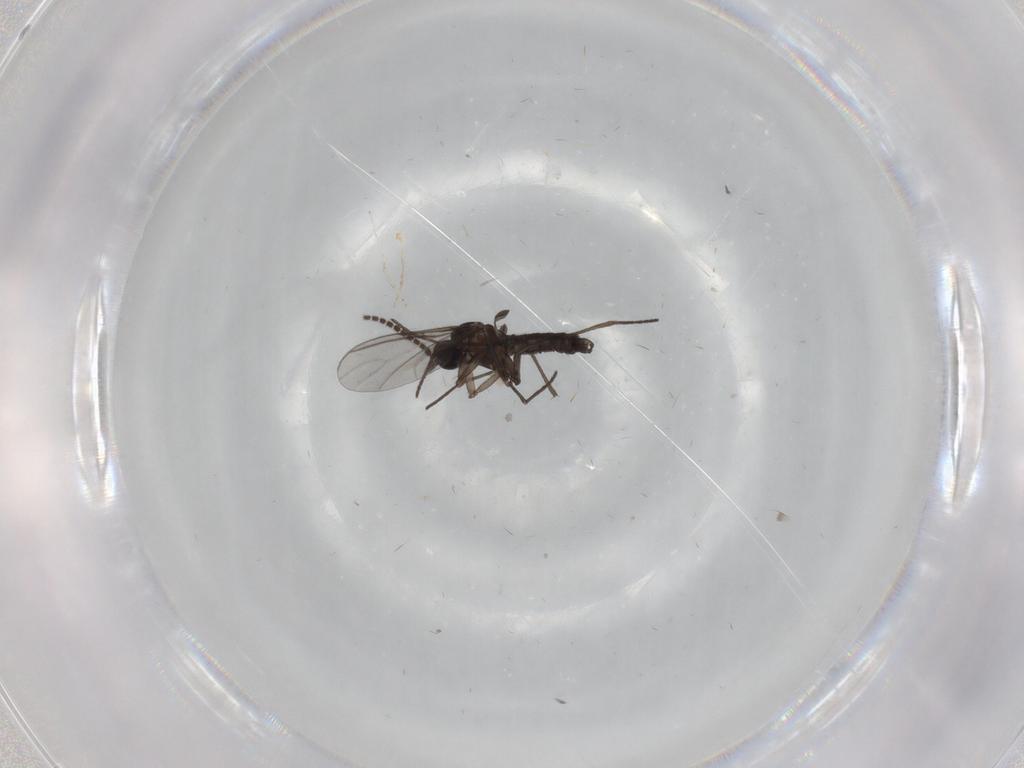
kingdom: Animalia
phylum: Arthropoda
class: Insecta
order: Diptera
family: Cecidomyiidae
